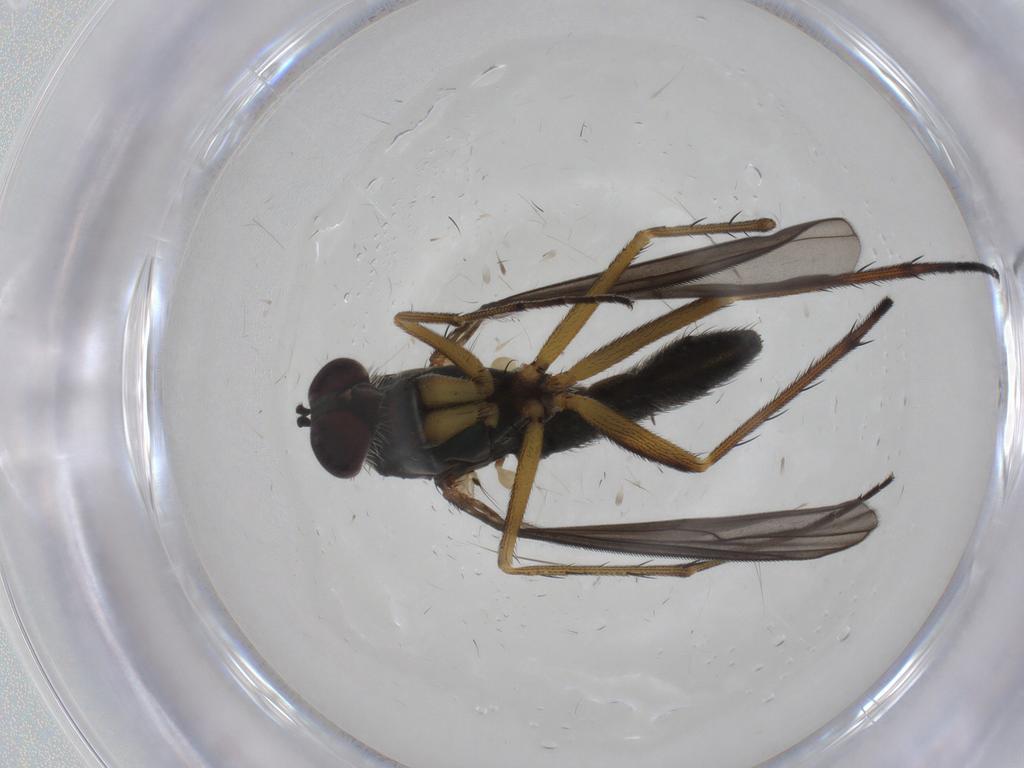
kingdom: Animalia
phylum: Arthropoda
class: Insecta
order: Diptera
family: Dolichopodidae
